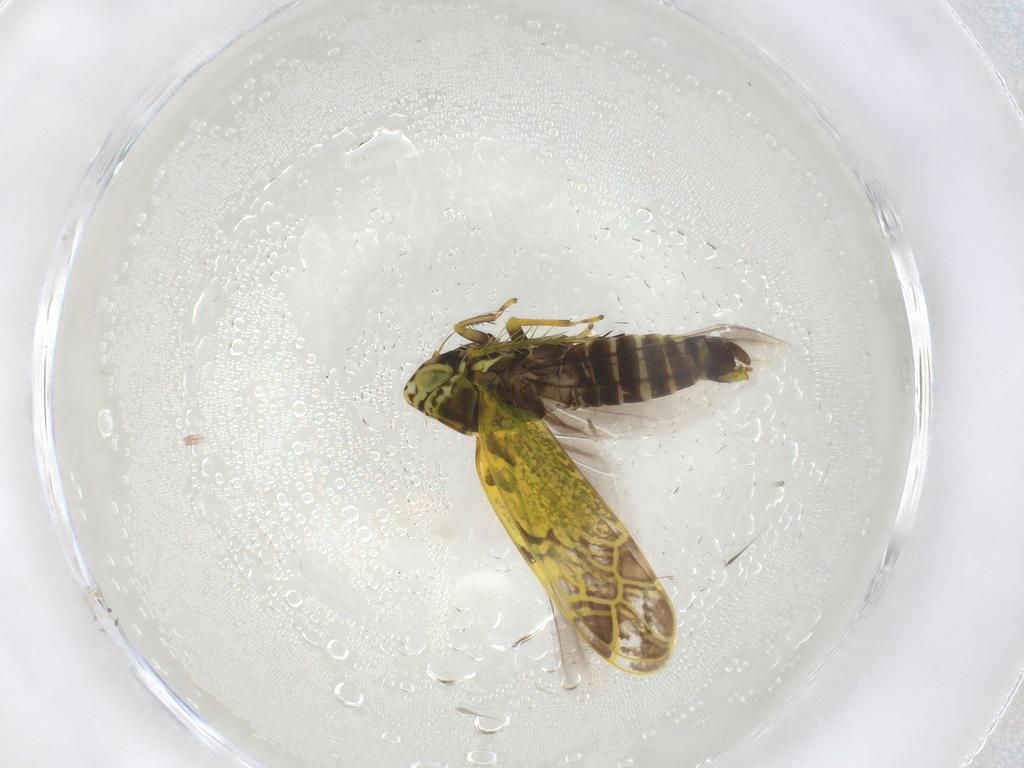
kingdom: Animalia
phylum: Arthropoda
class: Insecta
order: Hemiptera
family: Cicadellidae
